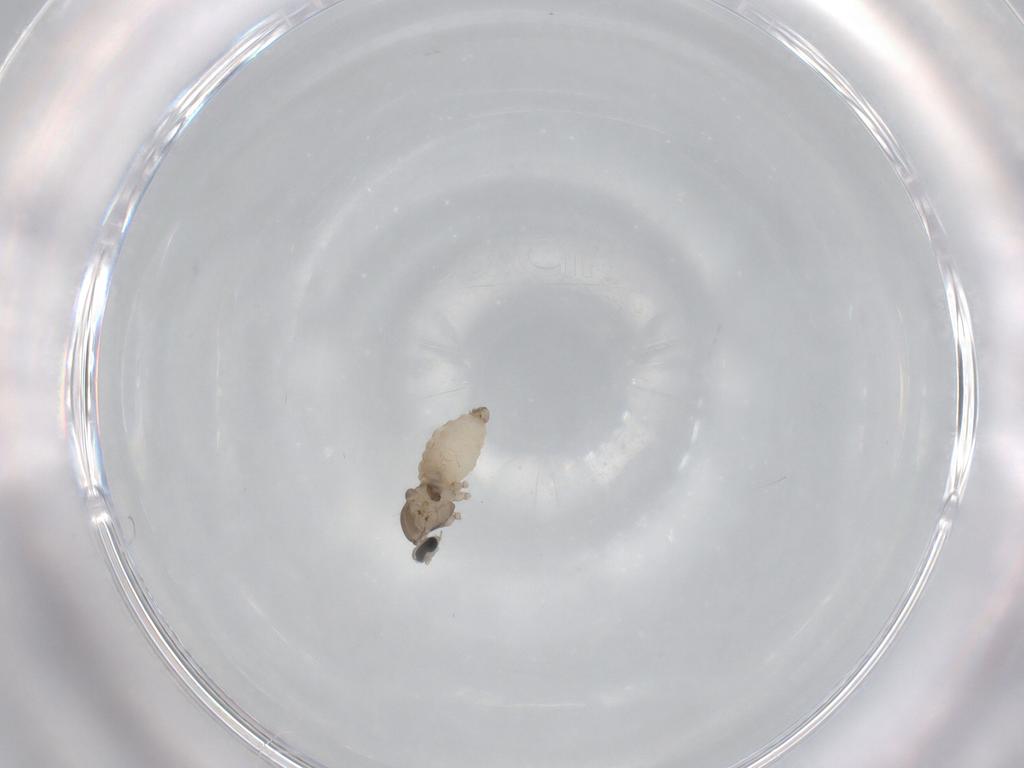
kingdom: Animalia
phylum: Arthropoda
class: Insecta
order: Diptera
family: Cecidomyiidae
